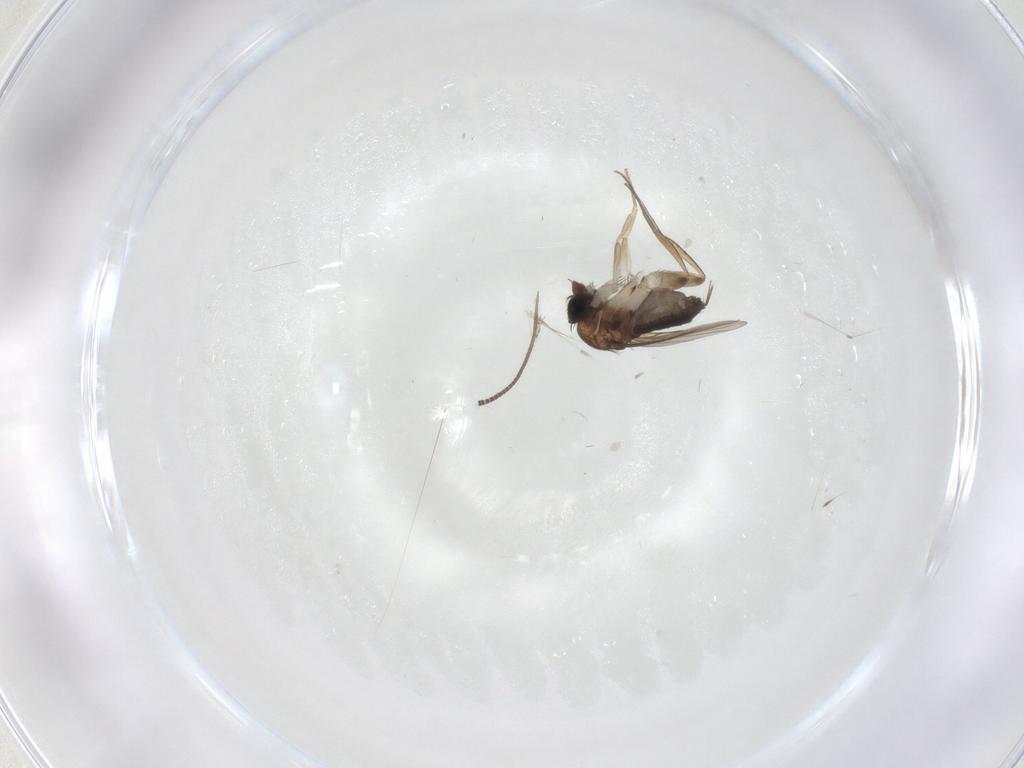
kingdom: Animalia
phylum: Arthropoda
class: Insecta
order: Diptera
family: Phoridae
